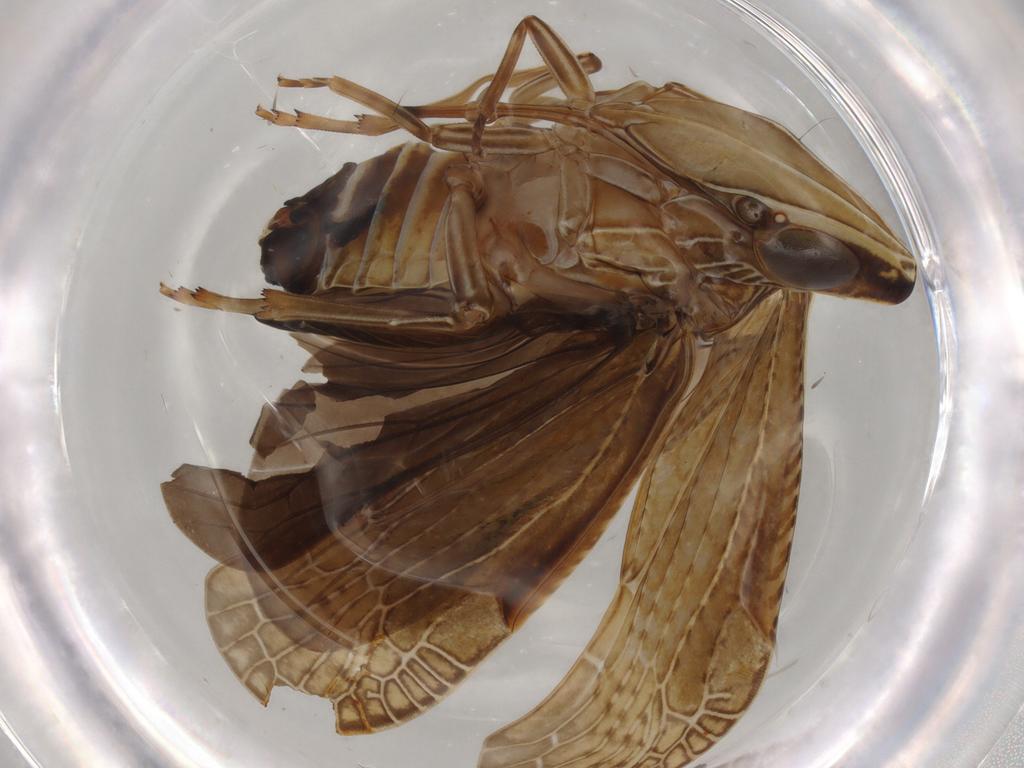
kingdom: Animalia
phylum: Arthropoda
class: Insecta
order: Hemiptera
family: Achilidae
